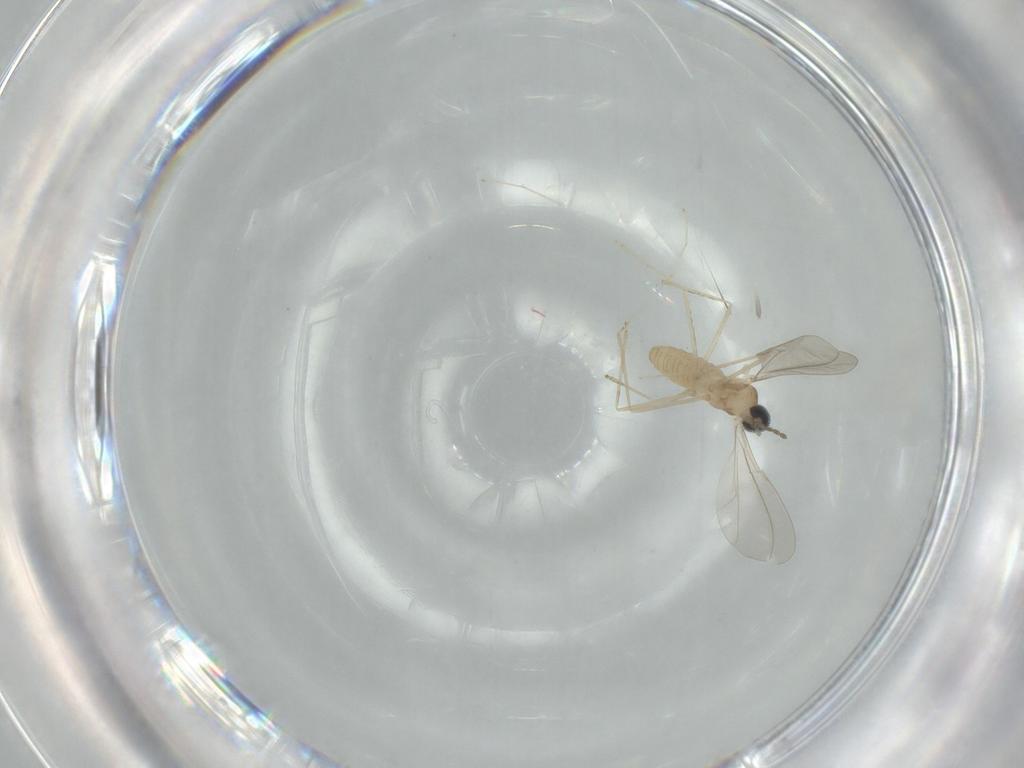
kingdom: Animalia
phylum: Arthropoda
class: Insecta
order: Diptera
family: Cecidomyiidae
